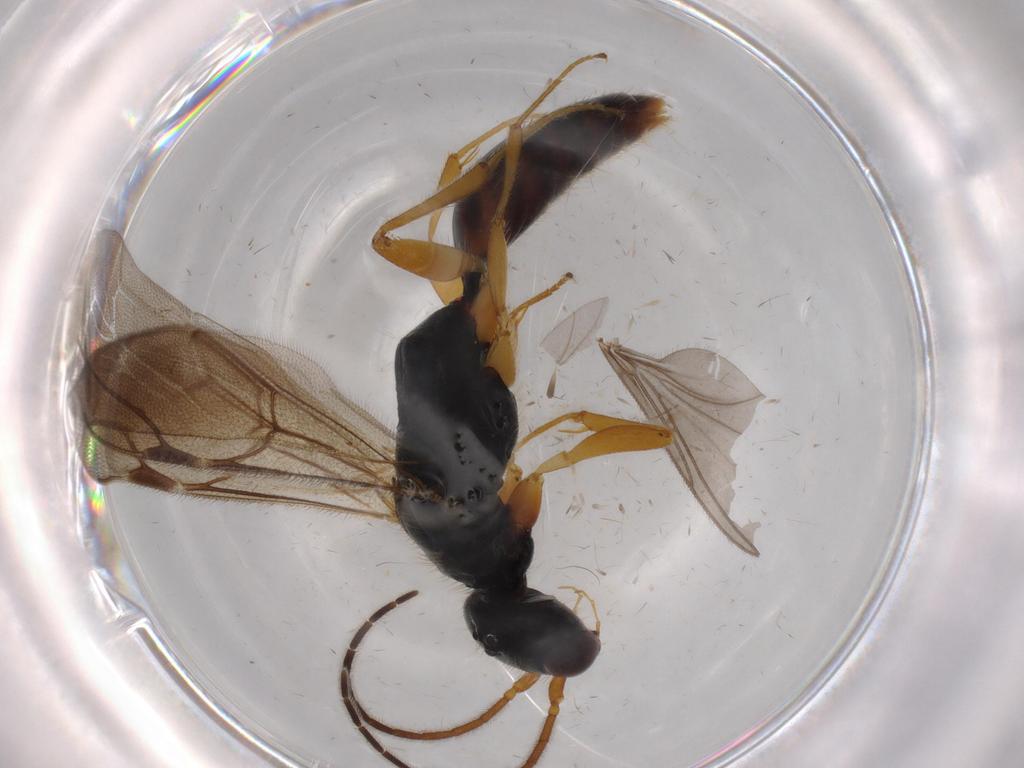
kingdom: Animalia
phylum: Arthropoda
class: Insecta
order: Hymenoptera
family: Bethylidae
